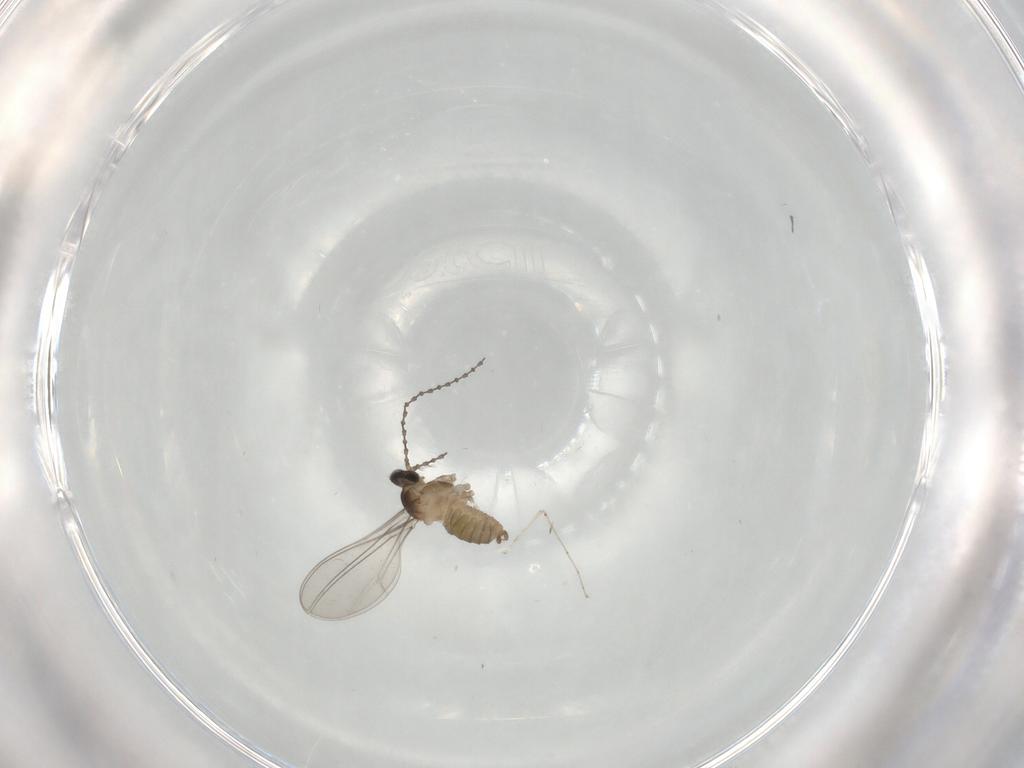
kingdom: Animalia
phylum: Arthropoda
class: Insecta
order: Diptera
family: Cecidomyiidae
